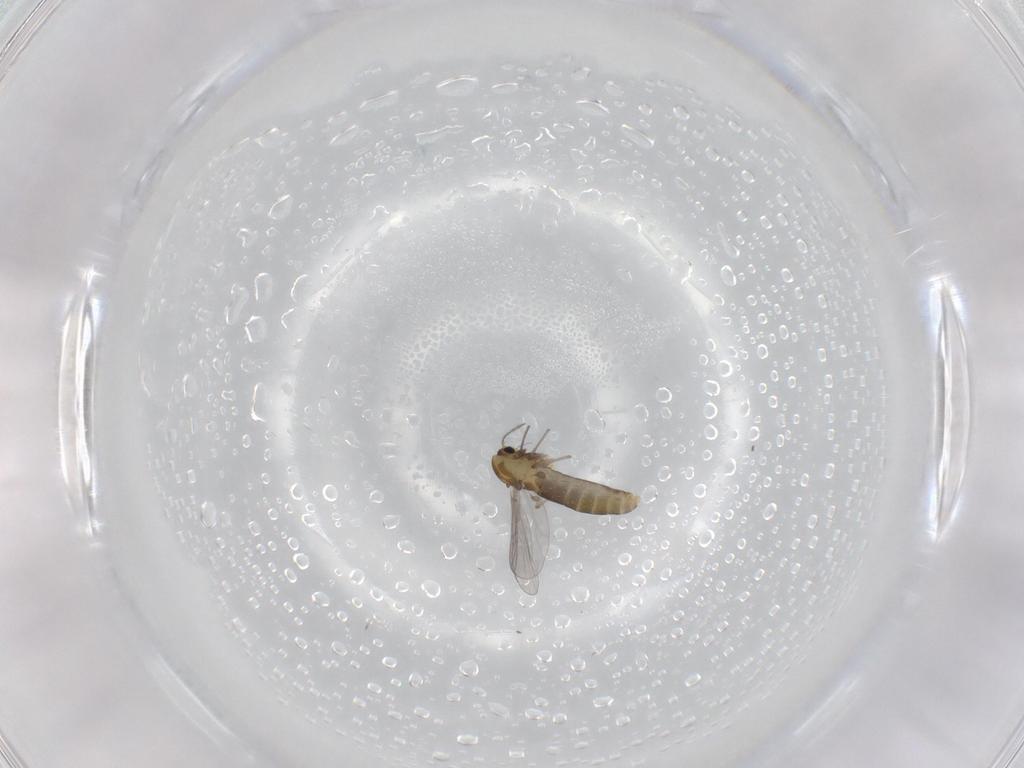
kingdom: Animalia
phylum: Arthropoda
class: Insecta
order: Diptera
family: Chironomidae
